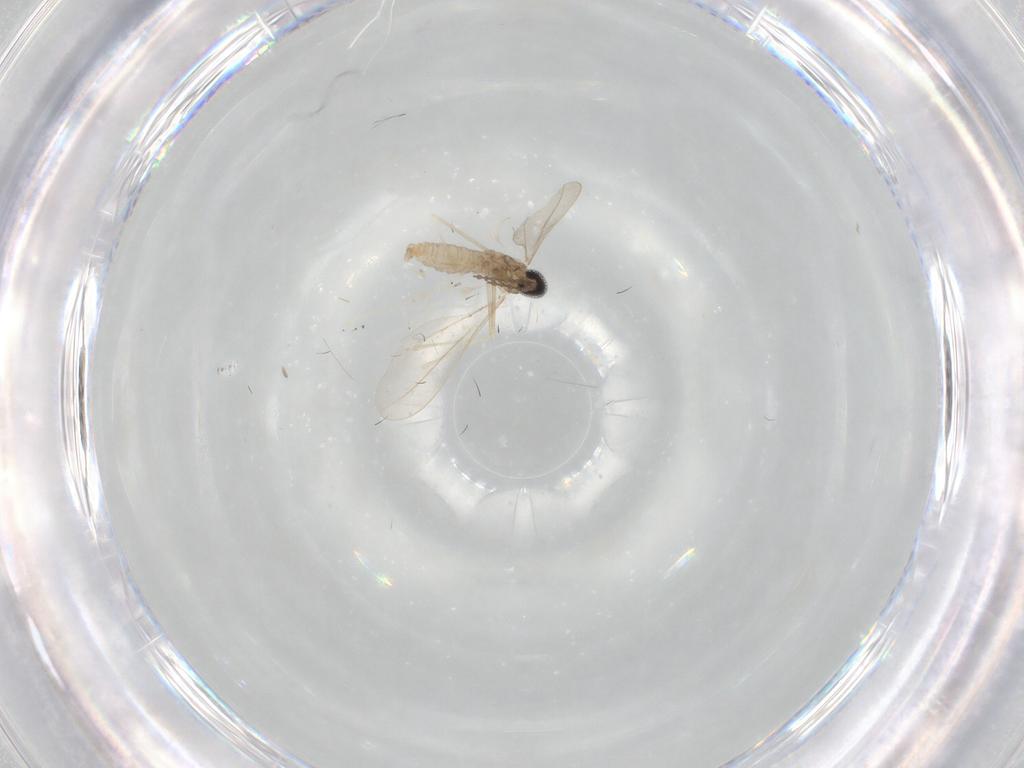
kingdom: Animalia
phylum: Arthropoda
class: Insecta
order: Diptera
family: Cecidomyiidae
